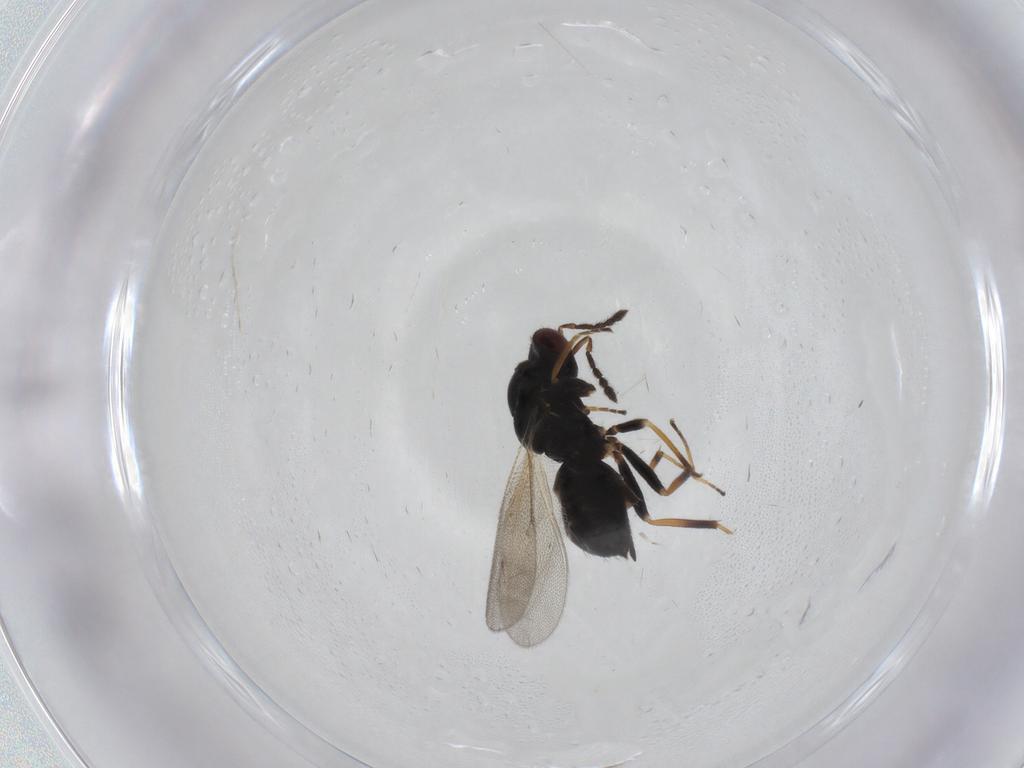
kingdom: Animalia
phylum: Arthropoda
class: Insecta
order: Hymenoptera
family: Eulophidae
